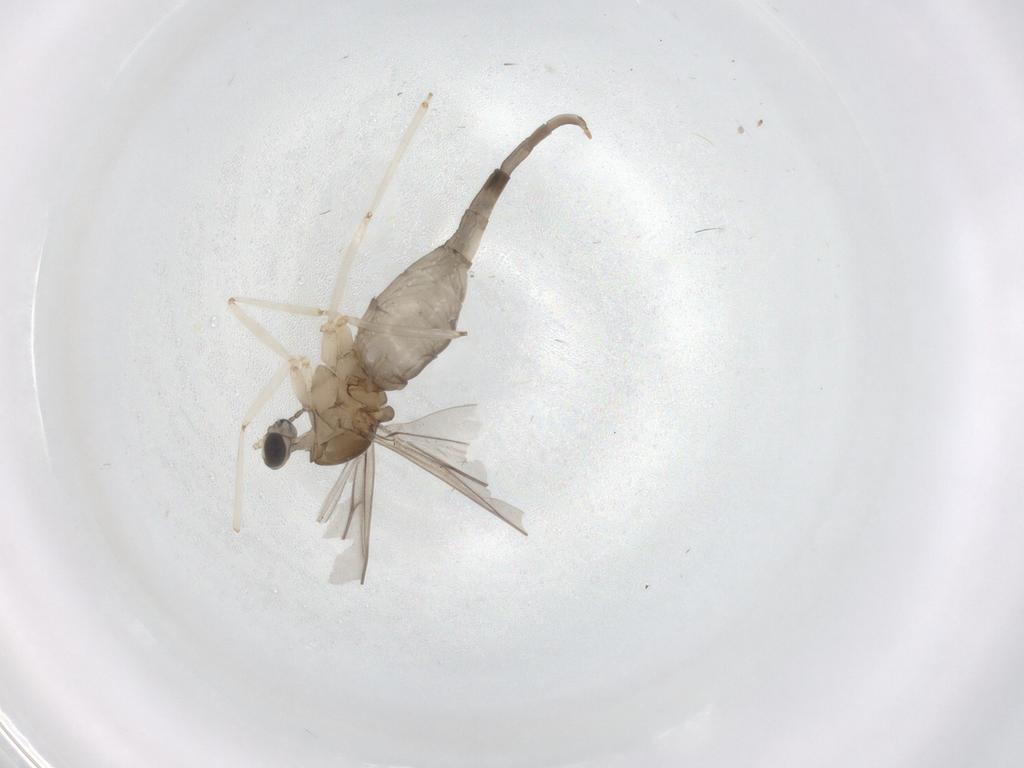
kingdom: Animalia
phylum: Arthropoda
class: Insecta
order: Diptera
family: Cecidomyiidae
